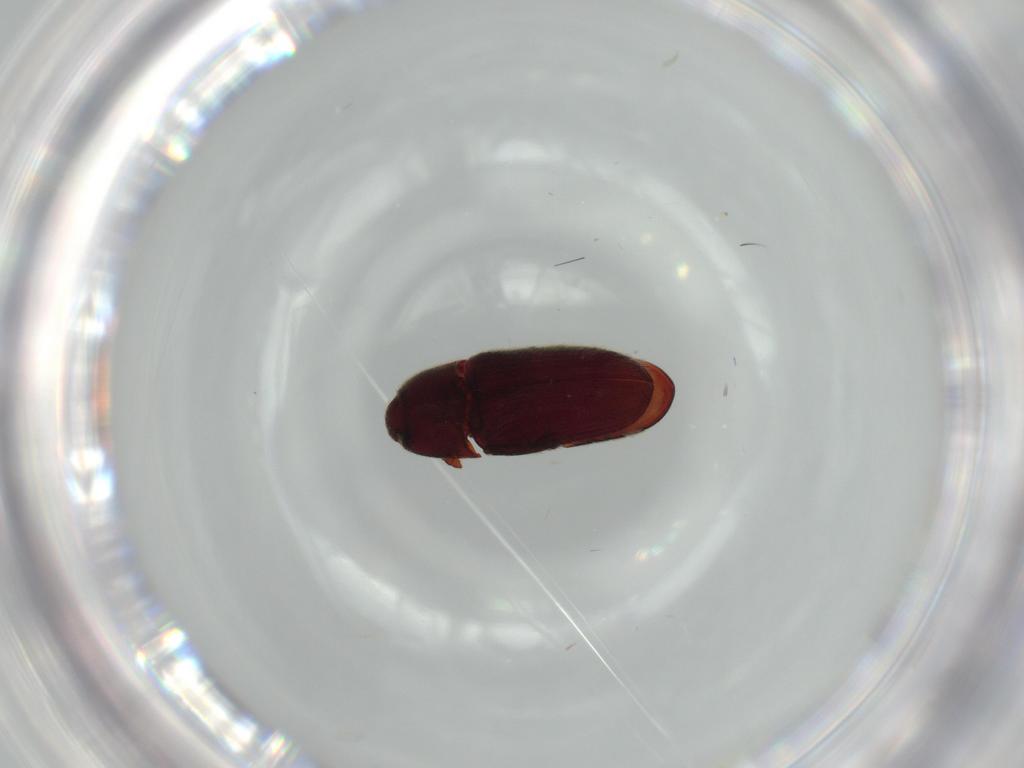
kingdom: Animalia
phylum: Arthropoda
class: Insecta
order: Coleoptera
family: Throscidae
